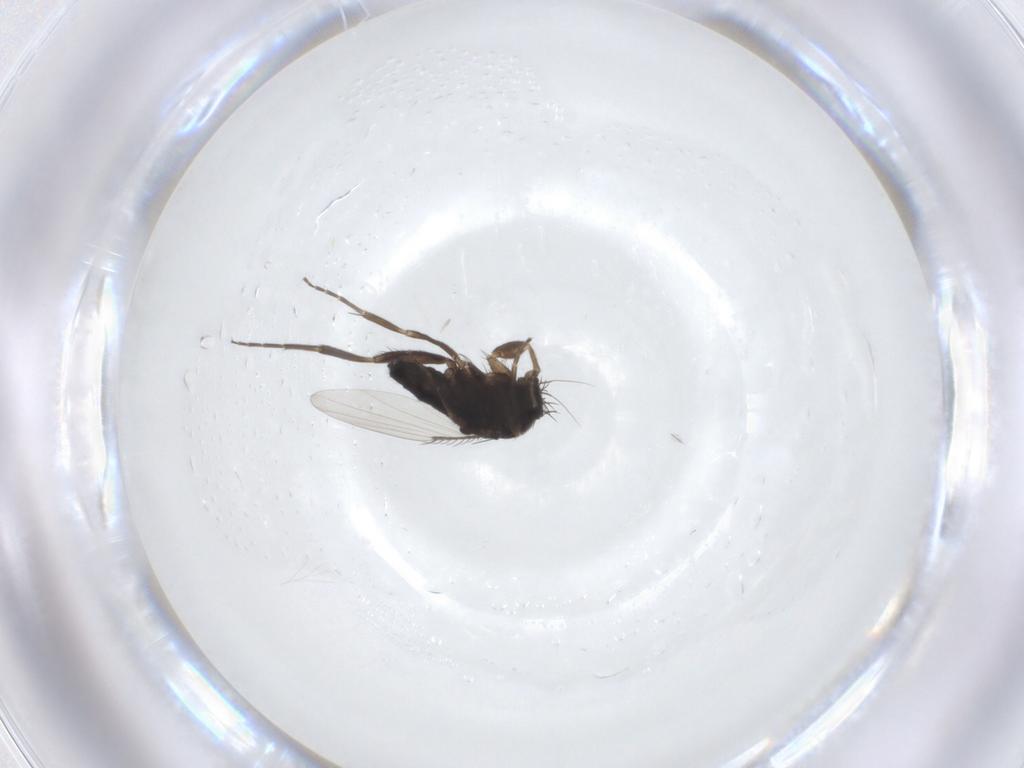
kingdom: Animalia
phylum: Arthropoda
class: Insecta
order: Diptera
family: Phoridae
